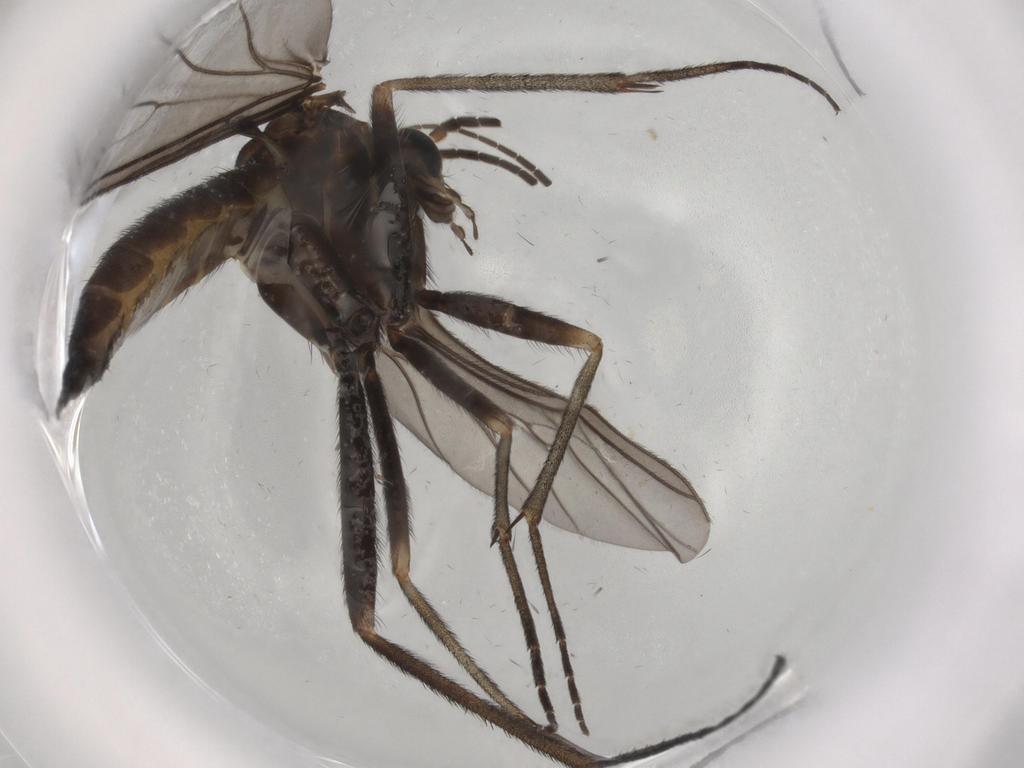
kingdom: Animalia
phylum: Arthropoda
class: Insecta
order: Diptera
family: Sciaridae
